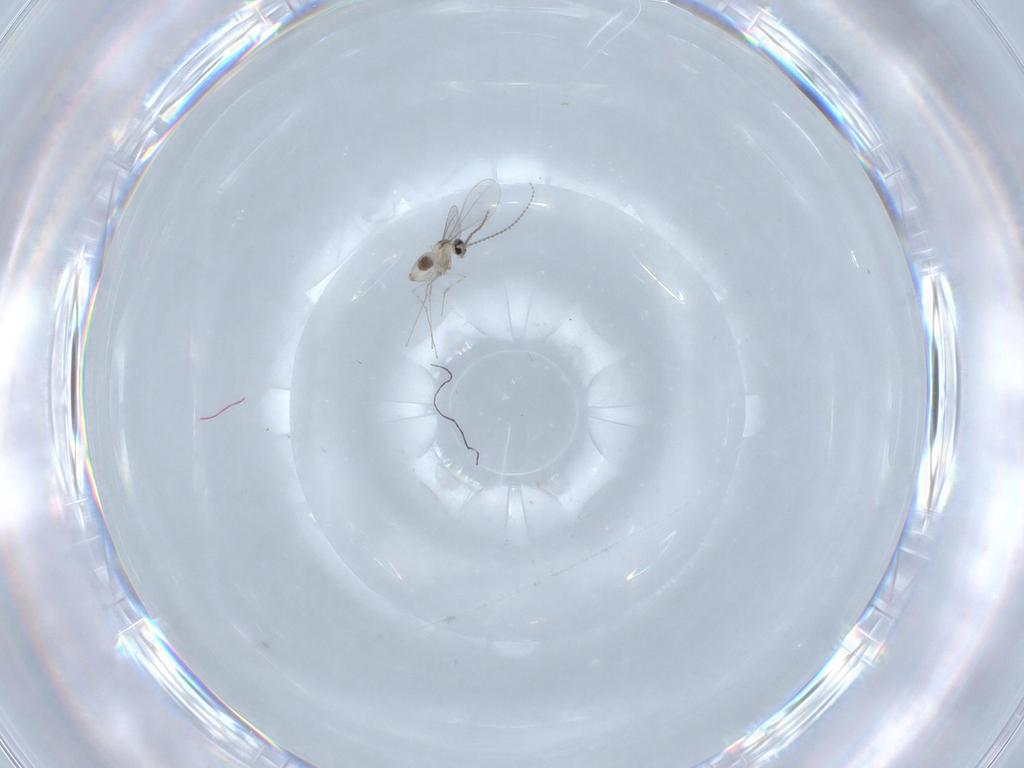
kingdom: Animalia
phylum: Arthropoda
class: Insecta
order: Diptera
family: Cecidomyiidae
